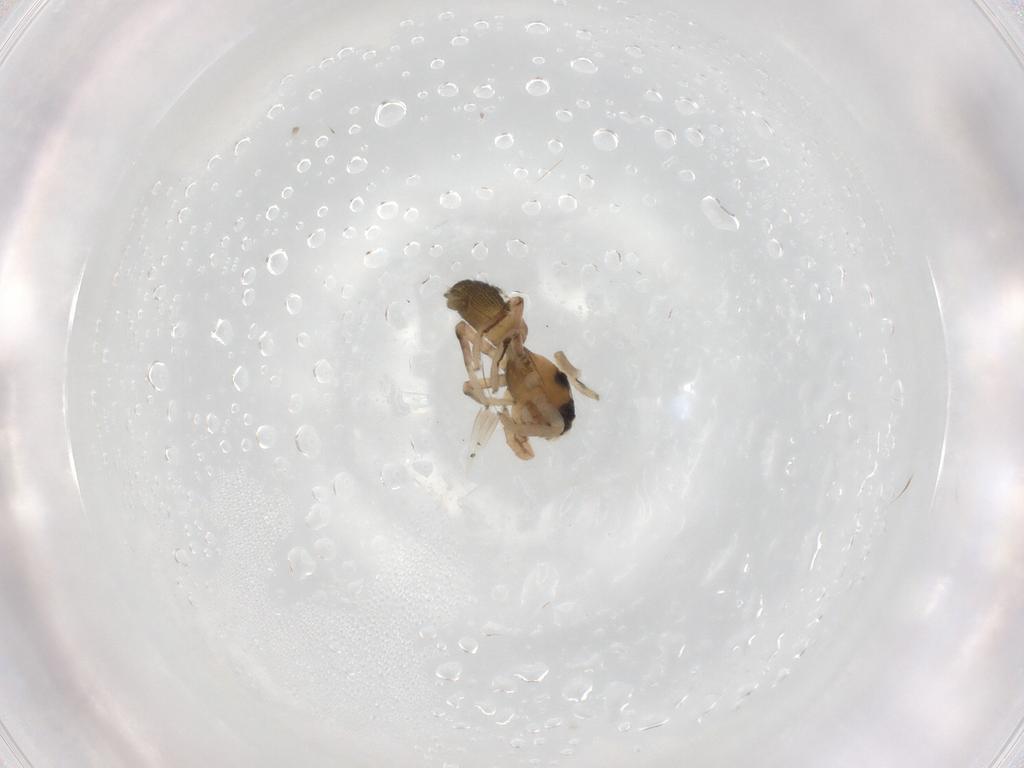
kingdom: Animalia
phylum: Arthropoda
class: Arachnida
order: Araneae
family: Salticidae
